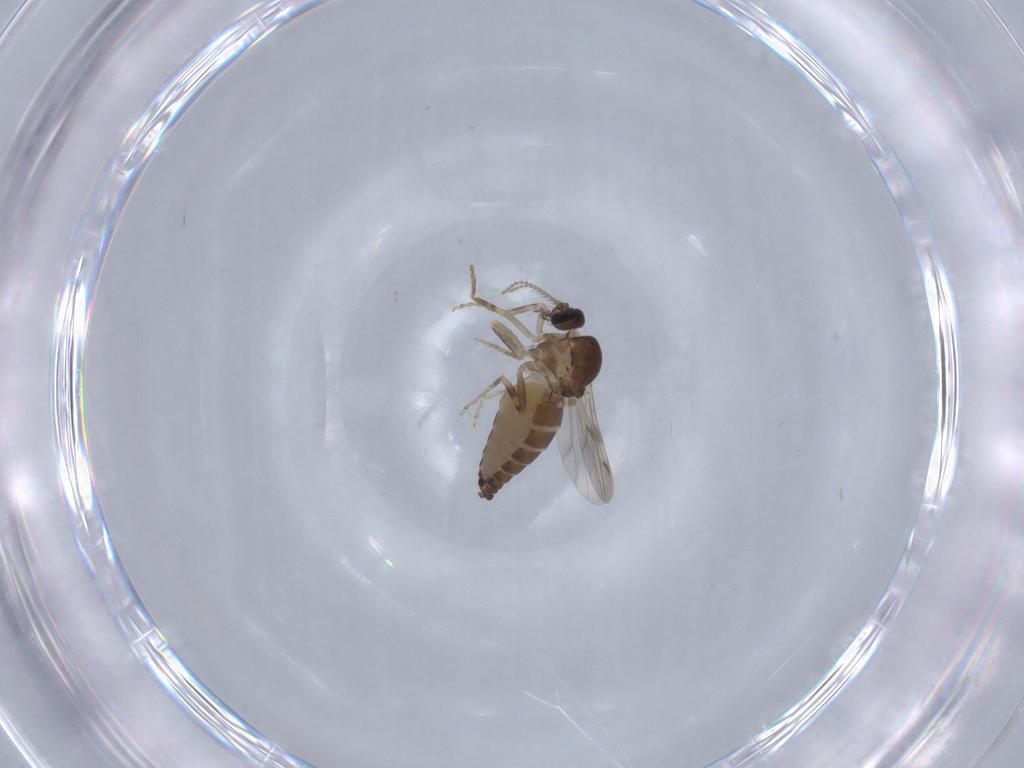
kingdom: Animalia
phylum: Arthropoda
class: Insecta
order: Diptera
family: Ceratopogonidae
